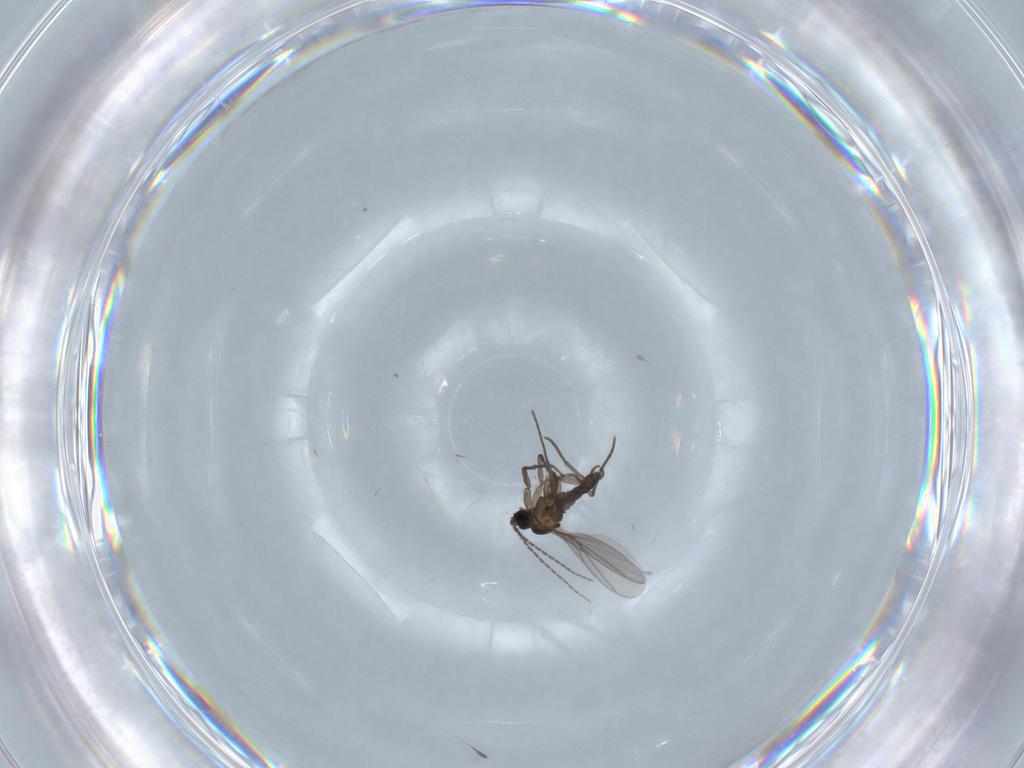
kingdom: Animalia
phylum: Arthropoda
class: Insecta
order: Diptera
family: Sciaridae
